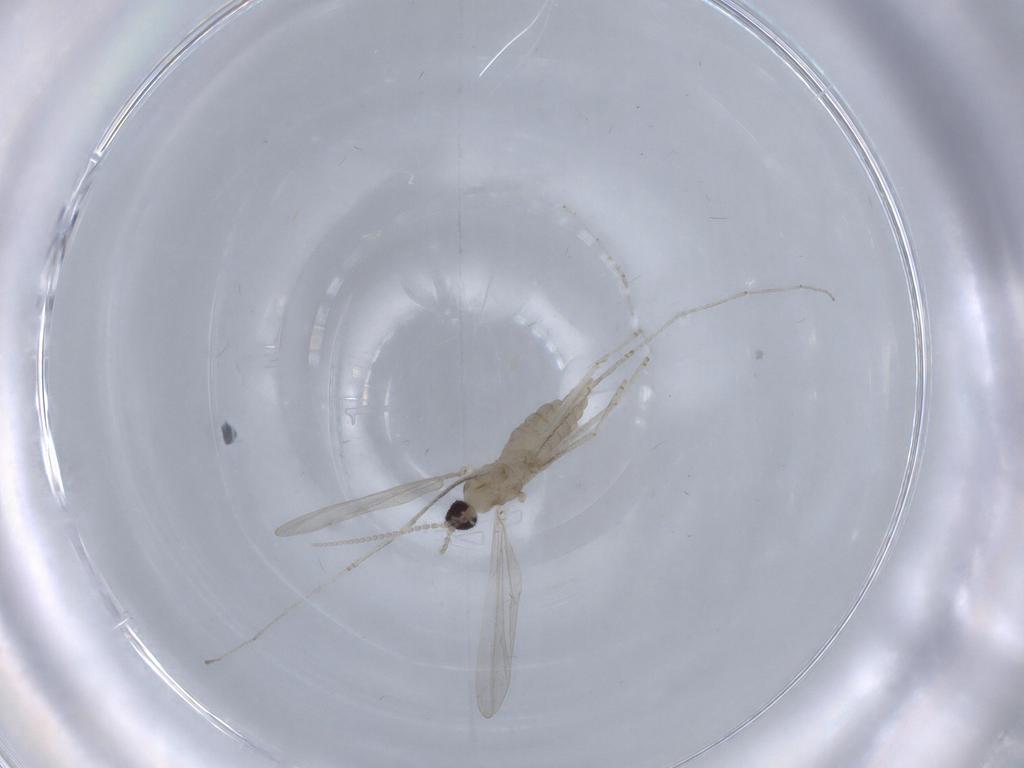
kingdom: Animalia
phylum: Arthropoda
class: Insecta
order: Diptera
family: Cecidomyiidae
